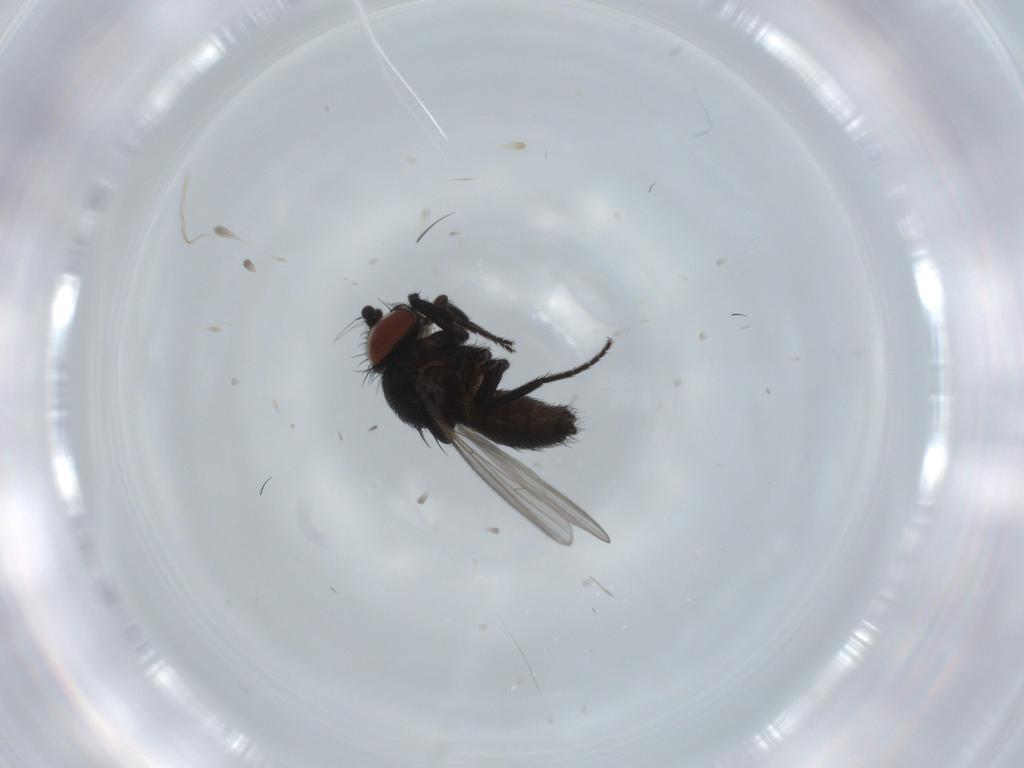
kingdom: Animalia
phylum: Arthropoda
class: Insecta
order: Diptera
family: Milichiidae
